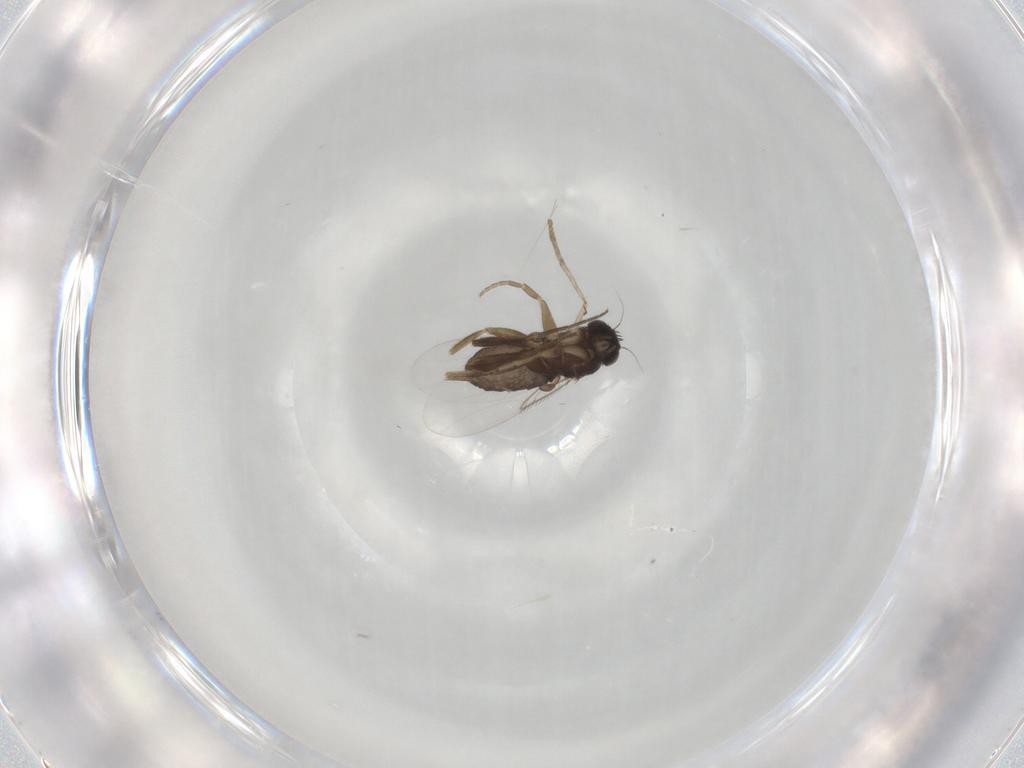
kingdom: Animalia
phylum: Arthropoda
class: Insecta
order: Diptera
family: Phoridae
